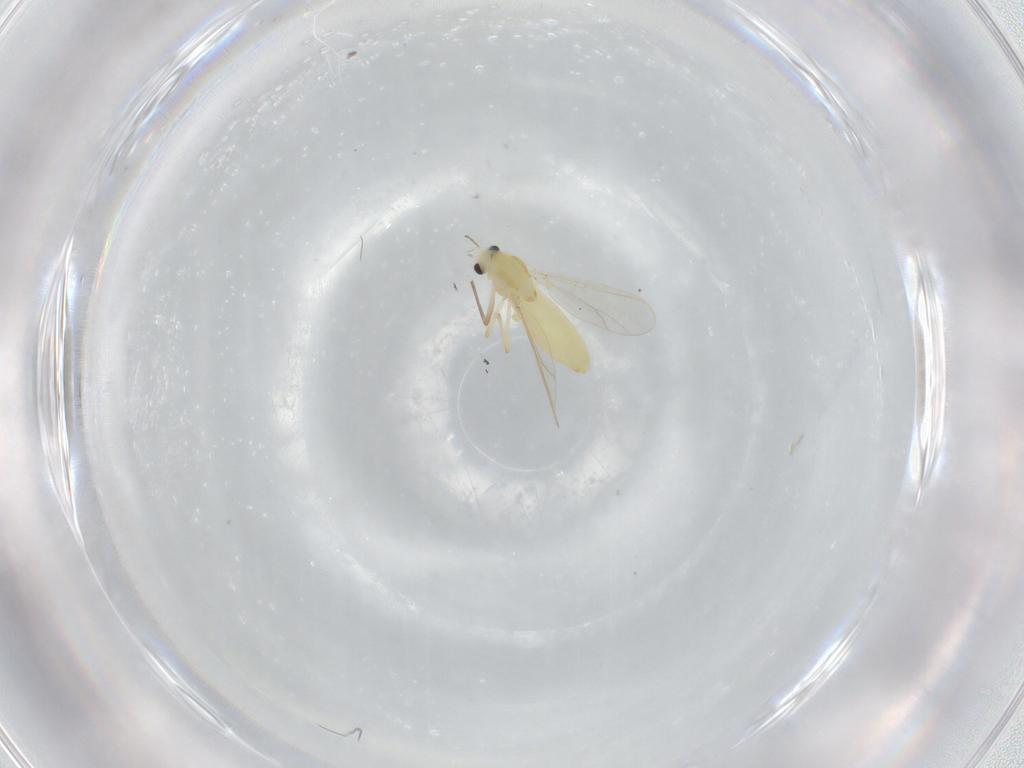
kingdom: Animalia
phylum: Arthropoda
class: Insecta
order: Diptera
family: Chironomidae
